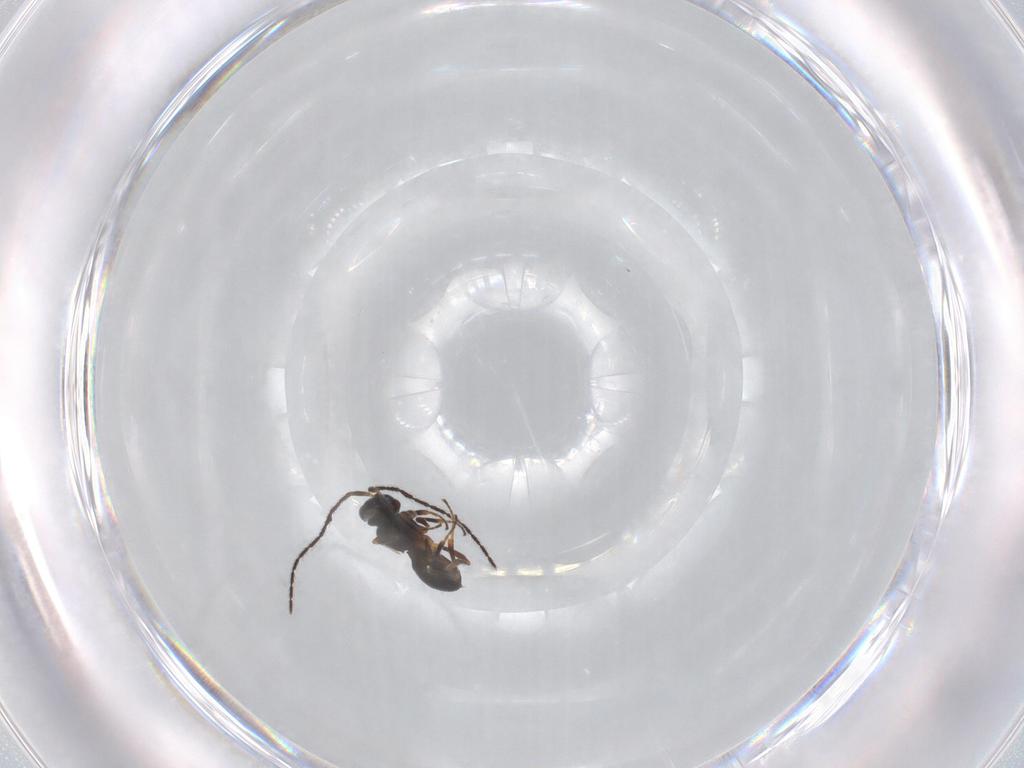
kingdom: Animalia
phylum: Arthropoda
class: Insecta
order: Hymenoptera
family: Scelionidae
